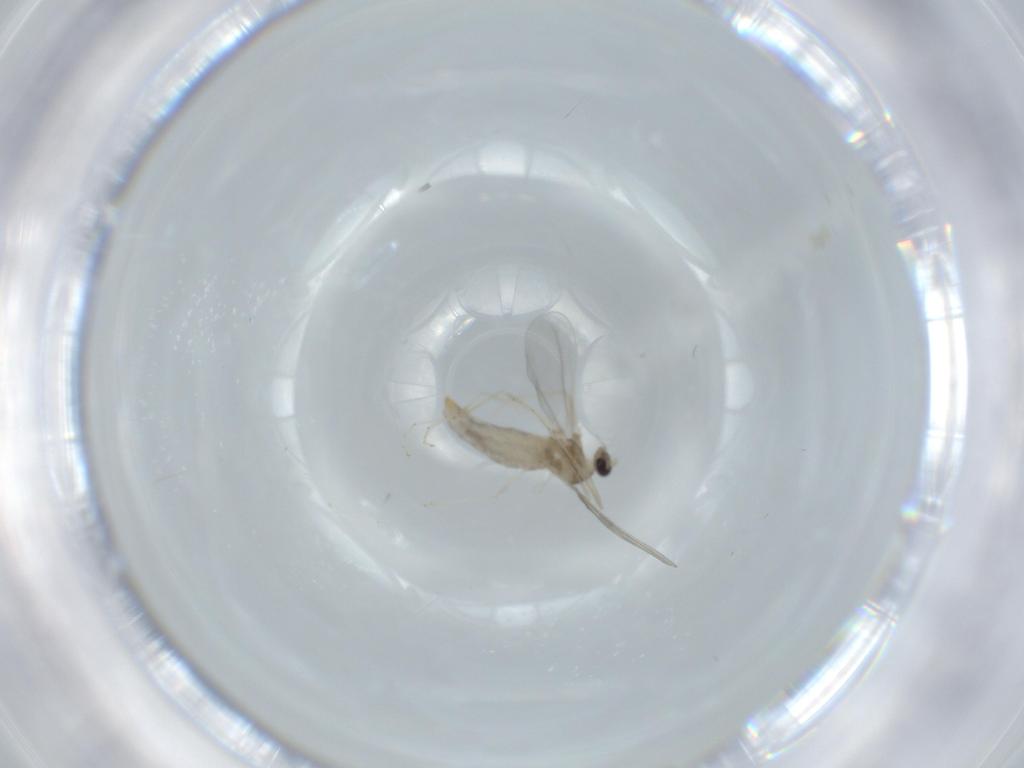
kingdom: Animalia
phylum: Arthropoda
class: Insecta
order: Diptera
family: Cecidomyiidae
